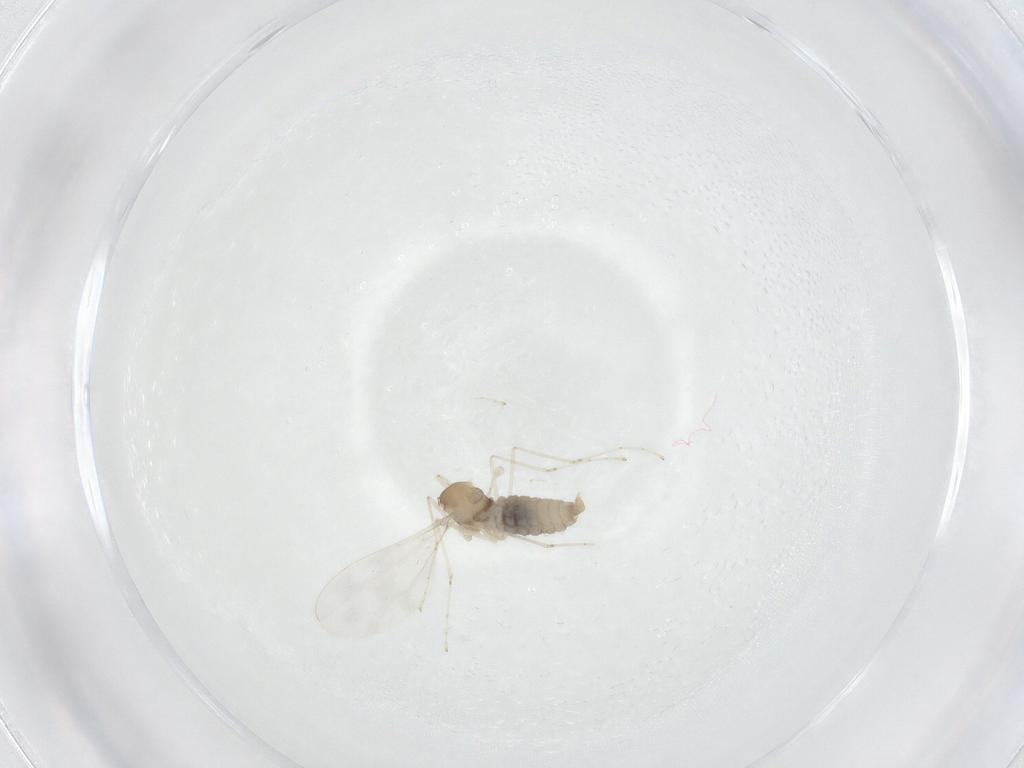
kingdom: Animalia
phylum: Arthropoda
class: Insecta
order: Diptera
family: Cecidomyiidae
